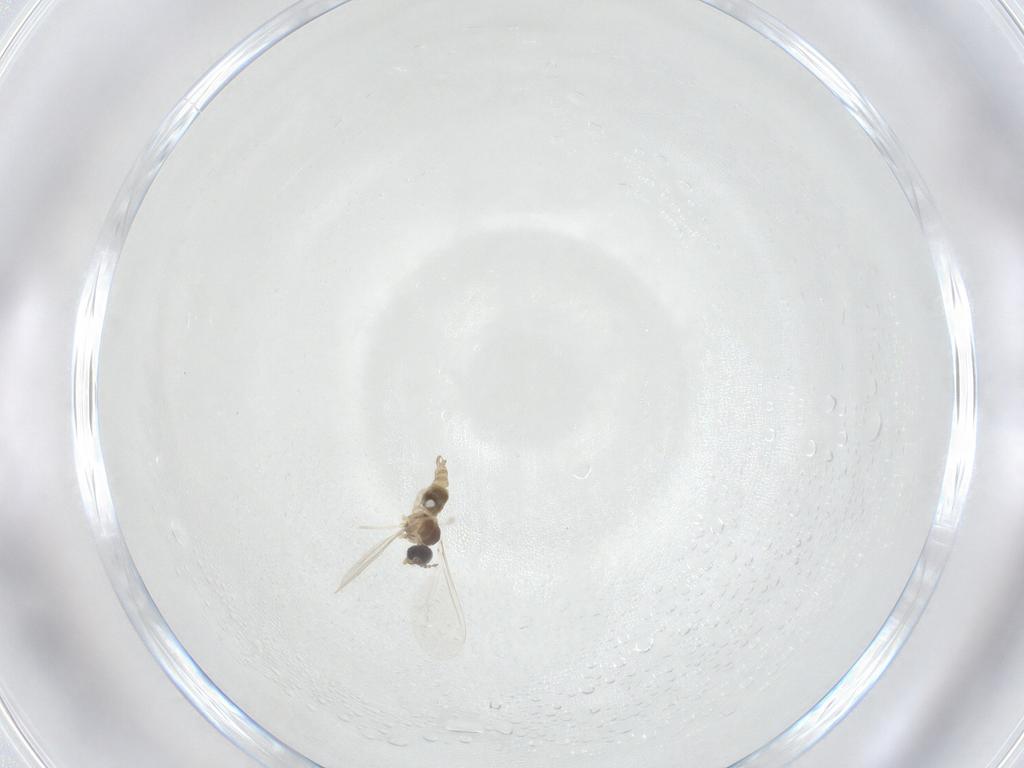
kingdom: Animalia
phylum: Arthropoda
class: Insecta
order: Diptera
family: Cecidomyiidae
